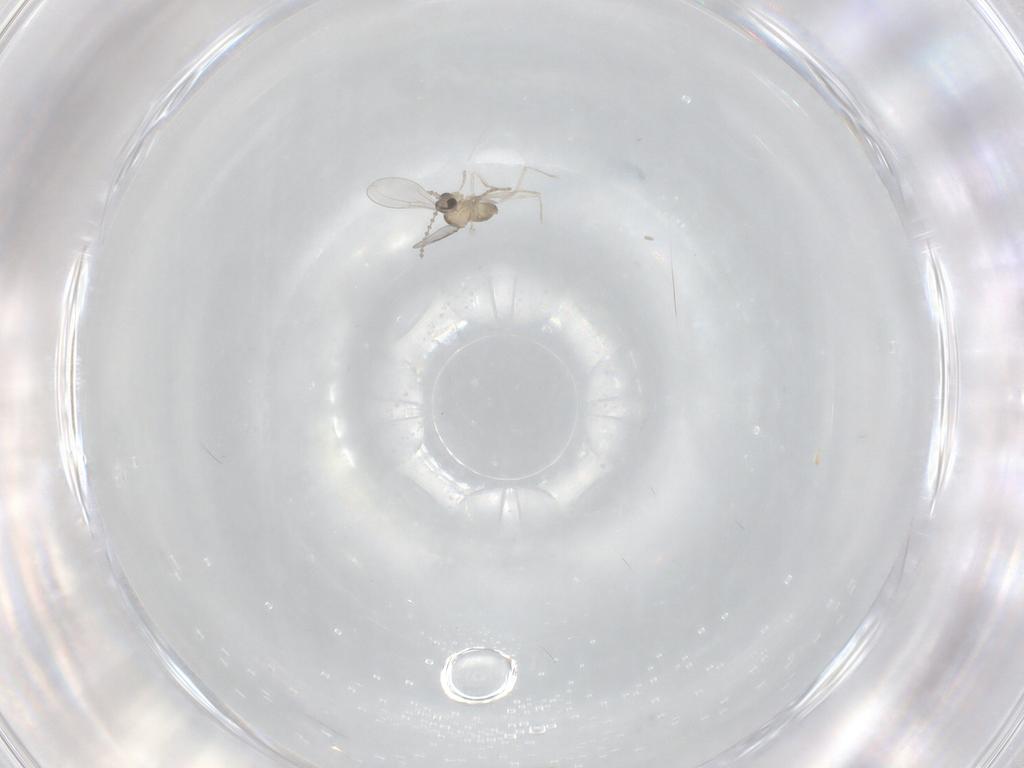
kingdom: Animalia
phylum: Arthropoda
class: Insecta
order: Diptera
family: Cecidomyiidae
